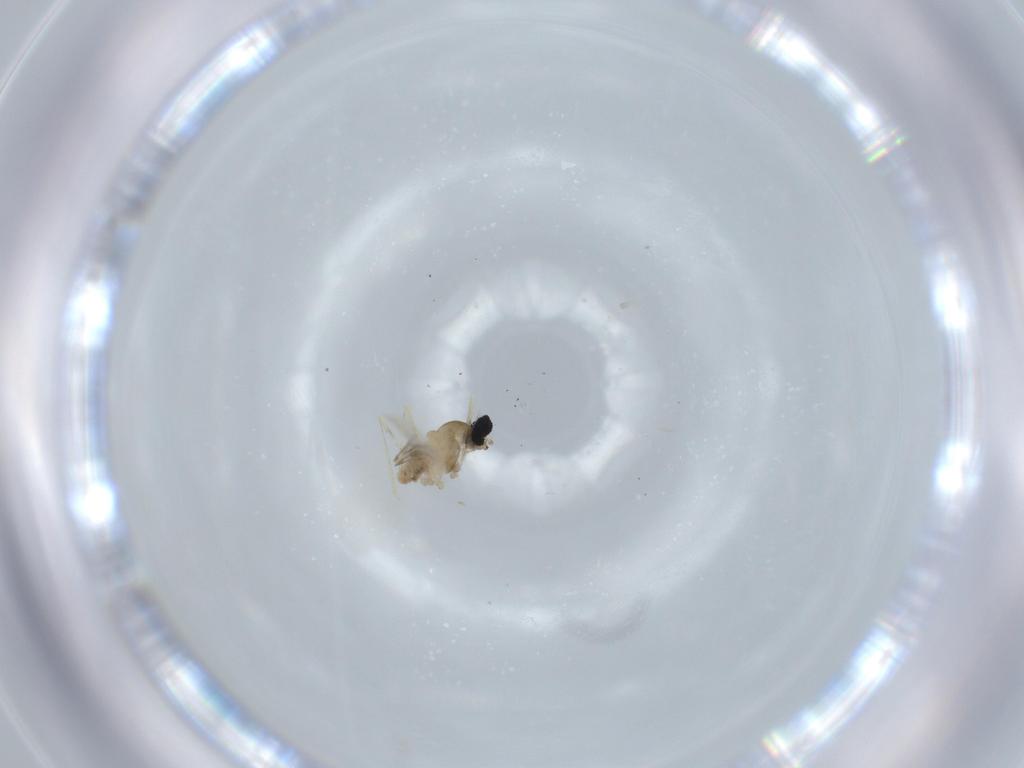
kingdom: Animalia
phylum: Arthropoda
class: Insecta
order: Diptera
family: Cecidomyiidae
